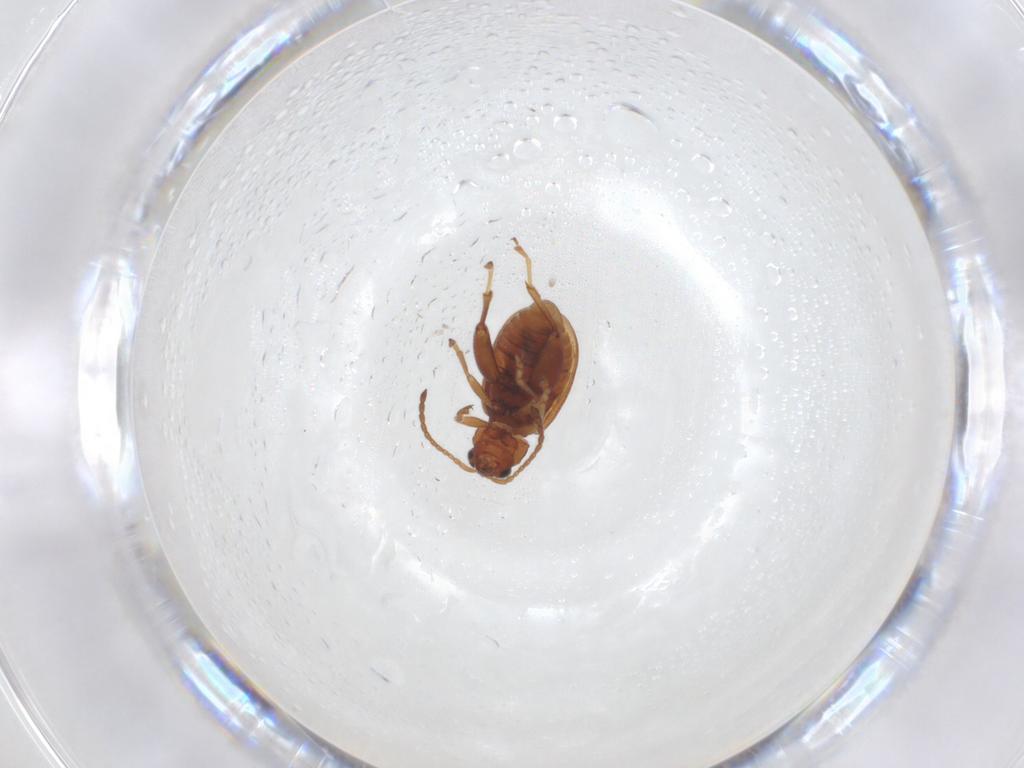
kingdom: Animalia
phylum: Arthropoda
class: Insecta
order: Coleoptera
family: Chrysomelidae
